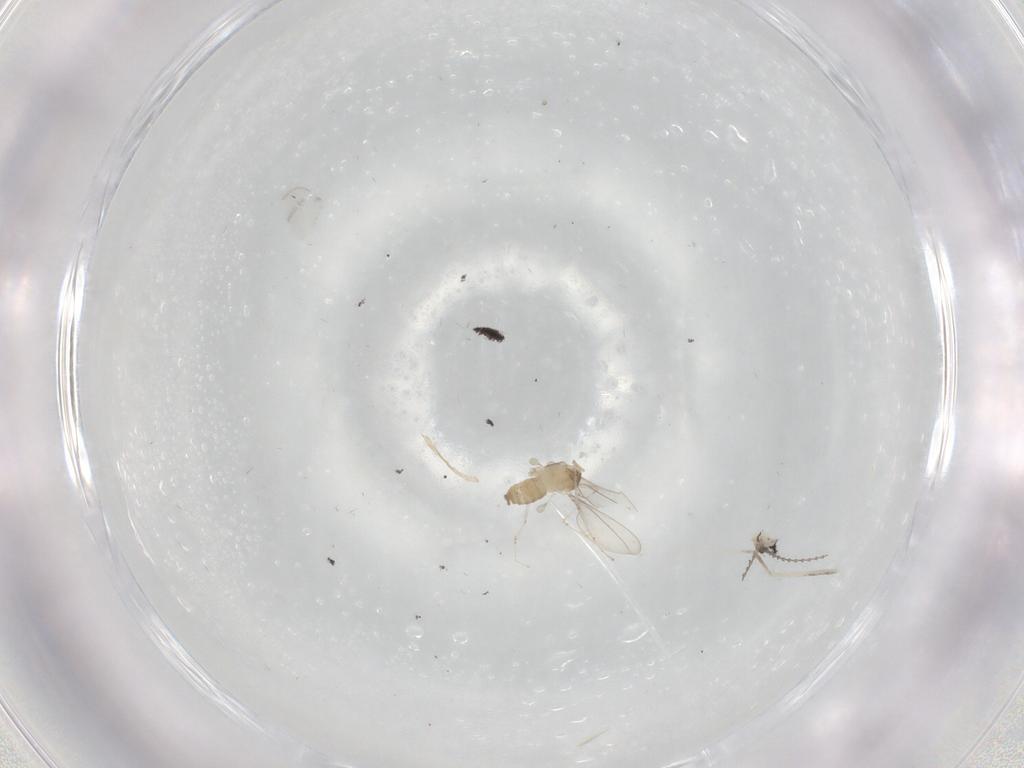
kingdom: Animalia
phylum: Arthropoda
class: Insecta
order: Diptera
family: Cecidomyiidae
